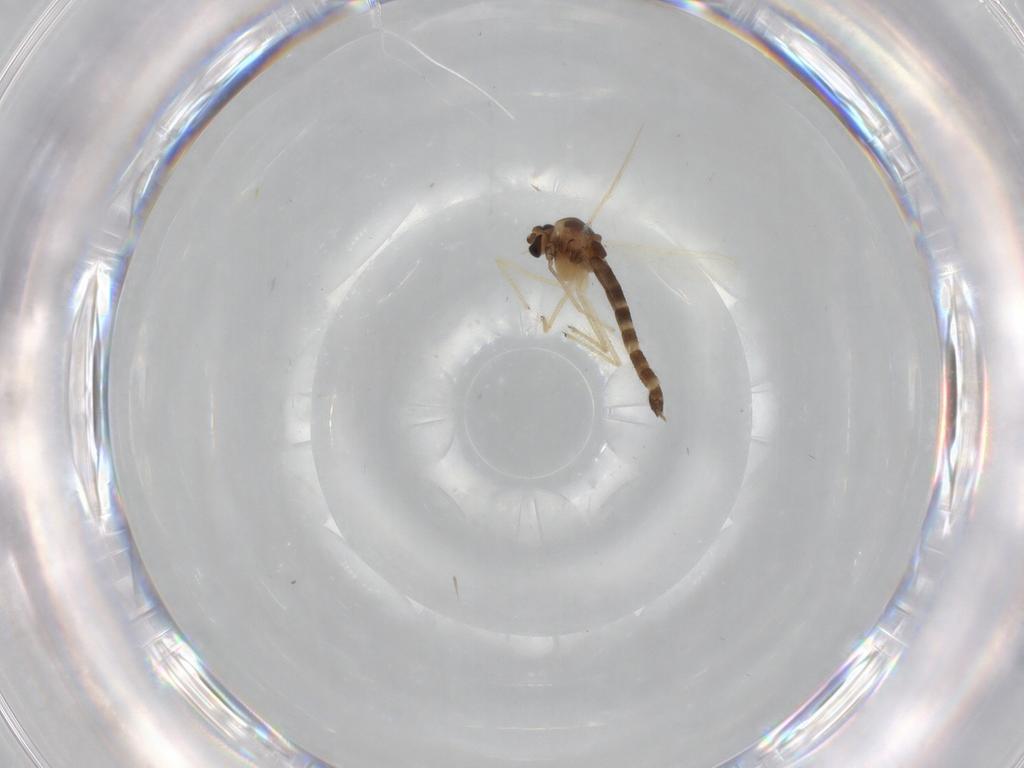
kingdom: Animalia
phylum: Arthropoda
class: Insecta
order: Diptera
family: Chironomidae
